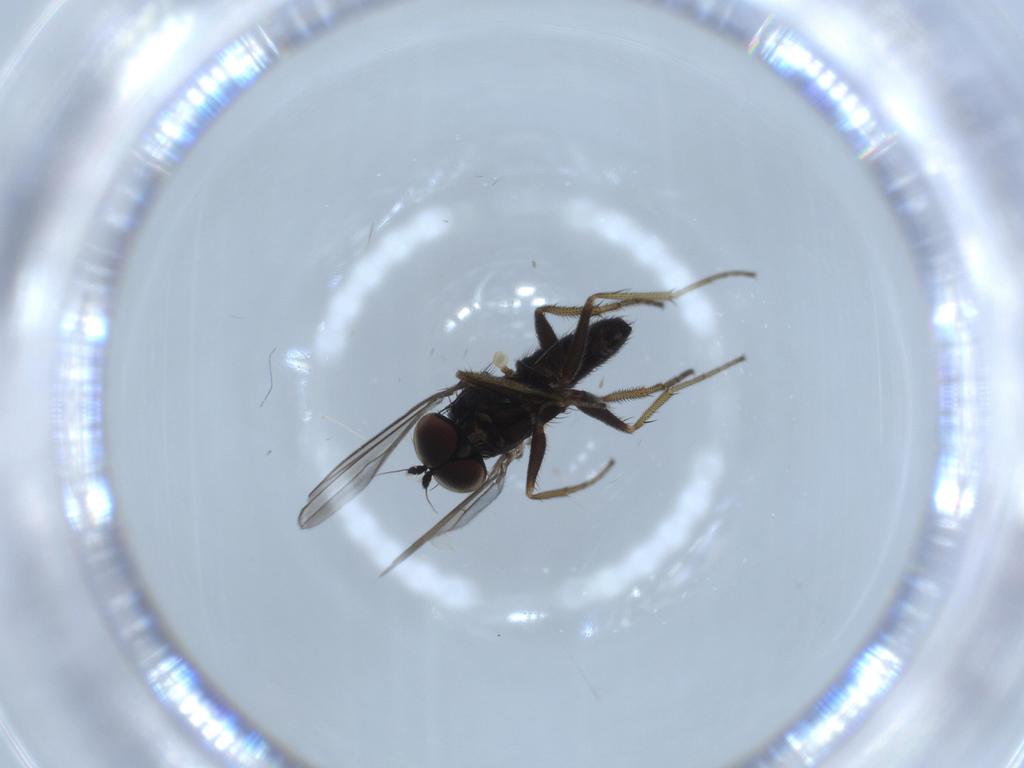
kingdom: Animalia
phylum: Arthropoda
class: Insecta
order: Diptera
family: Dolichopodidae
